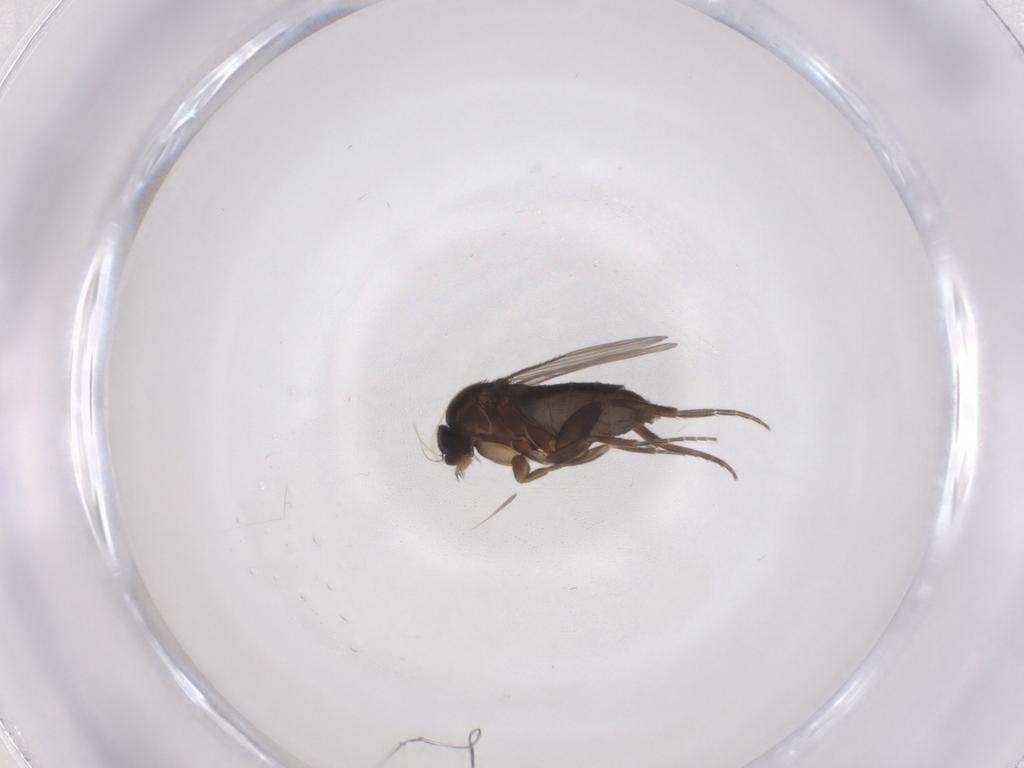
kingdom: Animalia
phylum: Arthropoda
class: Insecta
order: Diptera
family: Phoridae
